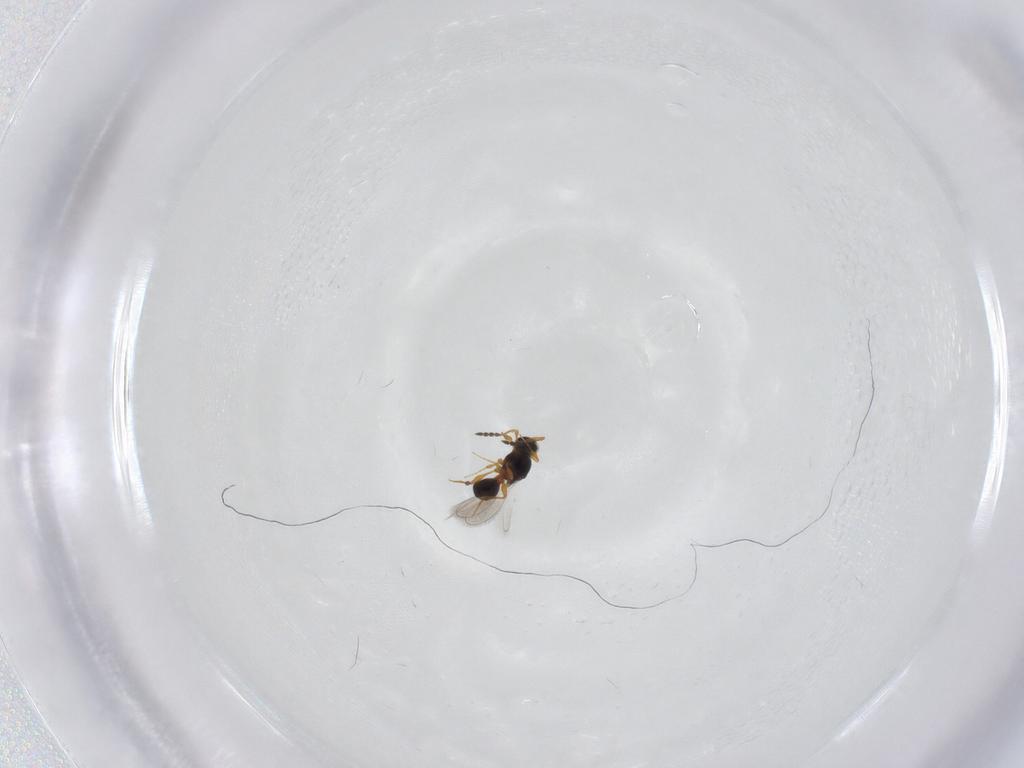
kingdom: Animalia
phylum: Arthropoda
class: Insecta
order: Hymenoptera
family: Platygastridae
